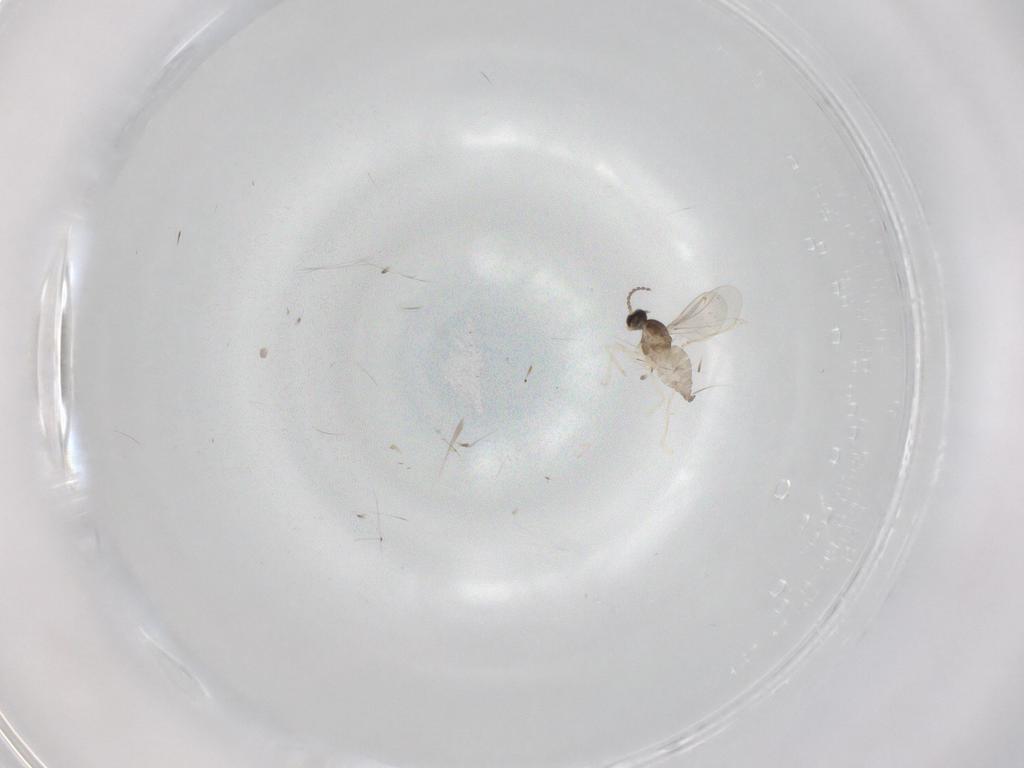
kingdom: Animalia
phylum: Arthropoda
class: Insecta
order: Diptera
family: Cecidomyiidae
